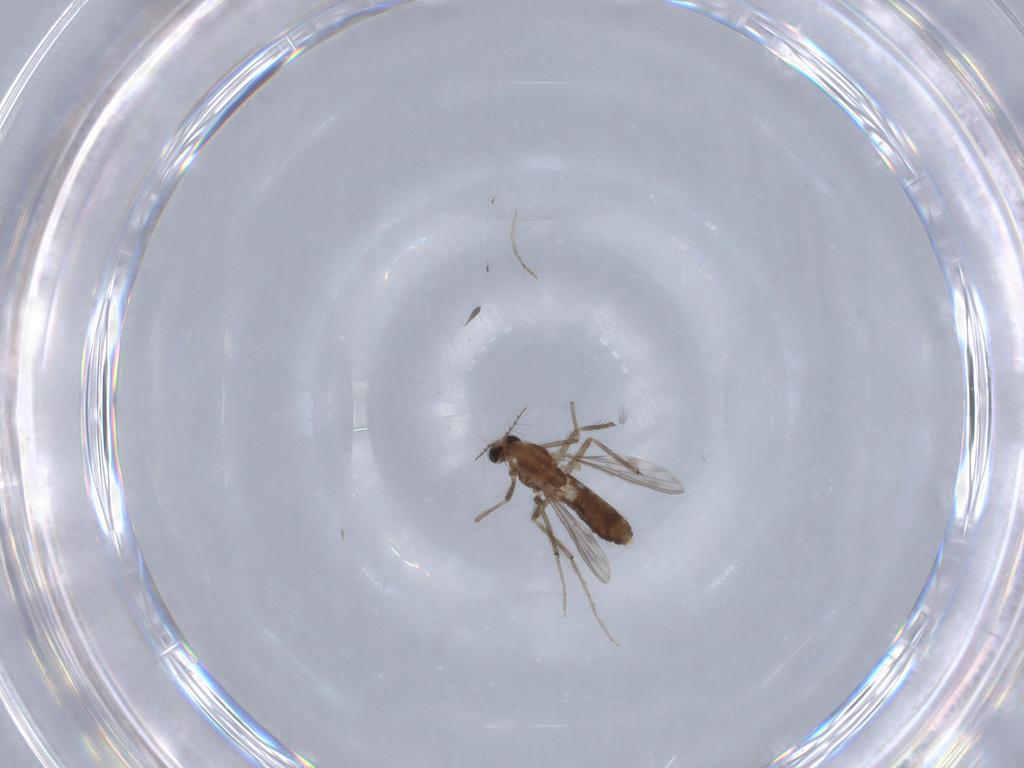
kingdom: Animalia
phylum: Arthropoda
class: Insecta
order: Diptera
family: Chironomidae
